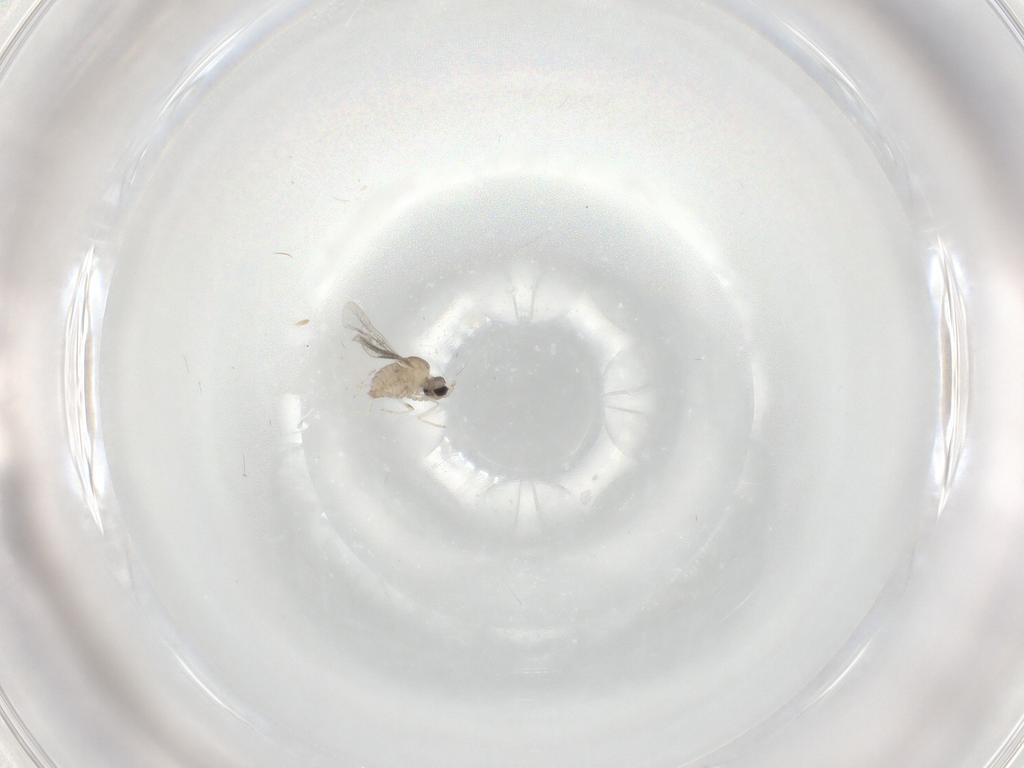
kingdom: Animalia
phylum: Arthropoda
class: Insecta
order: Diptera
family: Cecidomyiidae
